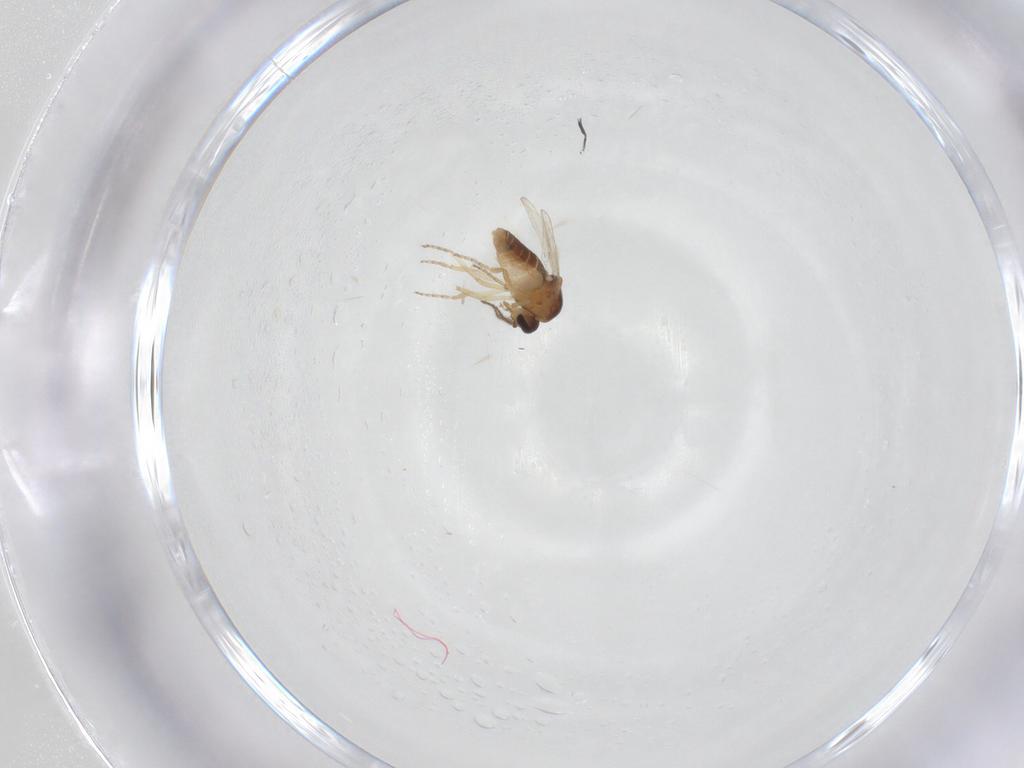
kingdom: Animalia
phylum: Arthropoda
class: Insecta
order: Diptera
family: Ceratopogonidae
